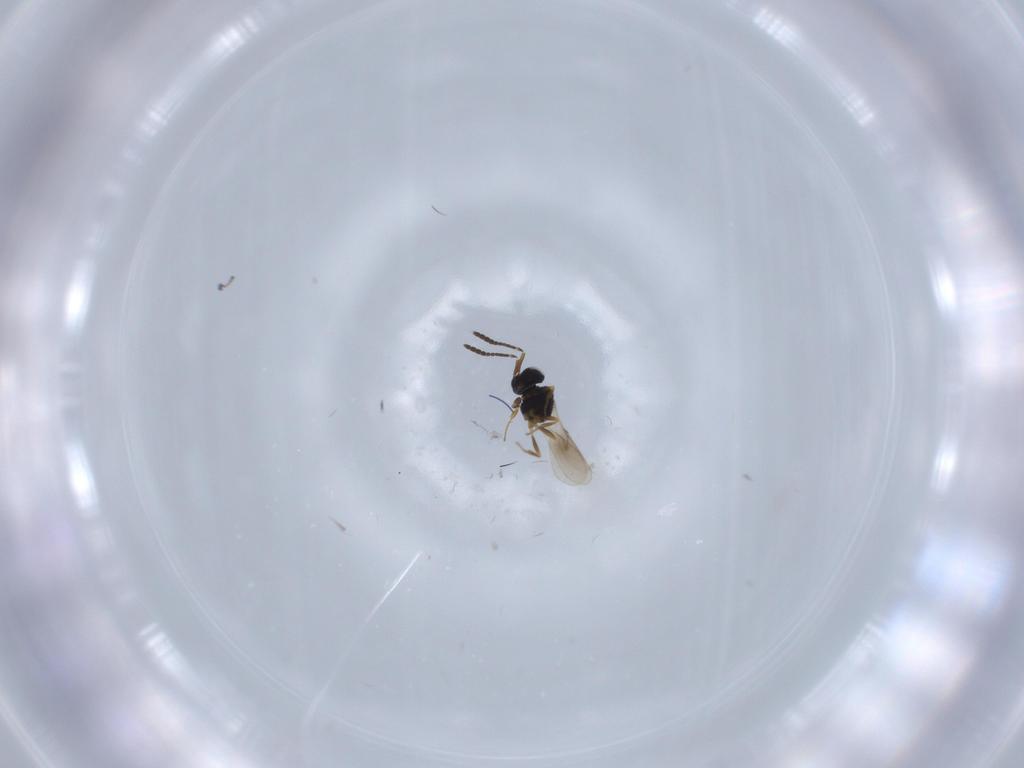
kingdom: Animalia
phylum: Arthropoda
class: Insecta
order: Hymenoptera
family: Scelionidae
